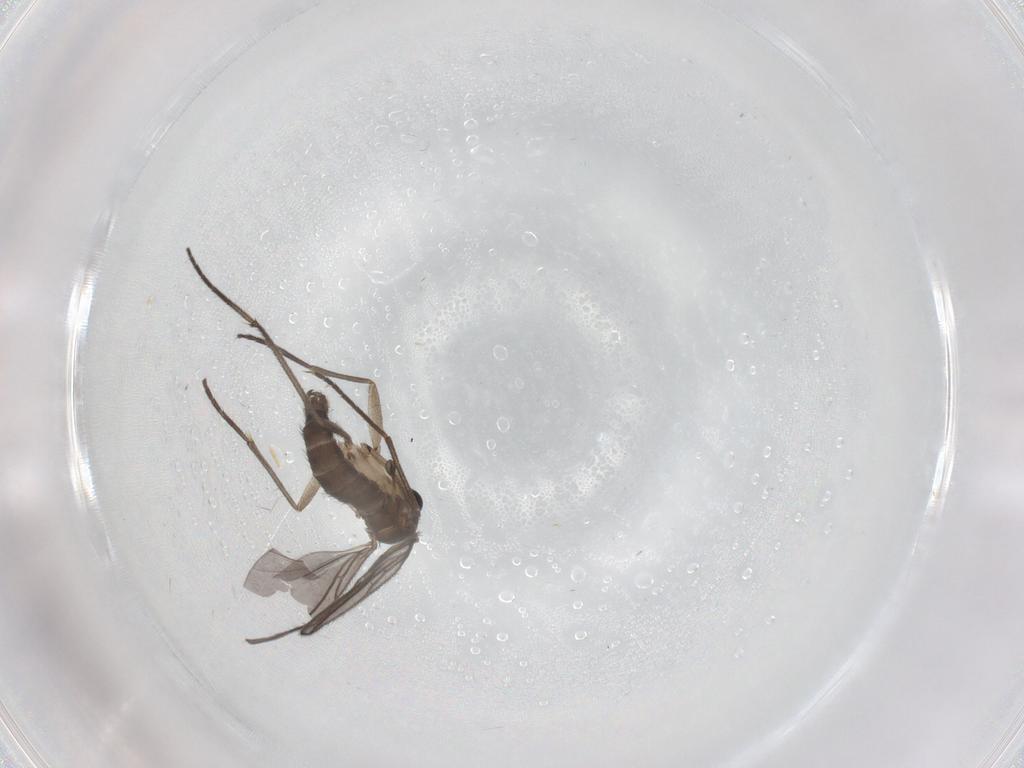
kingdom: Animalia
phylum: Arthropoda
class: Insecta
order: Diptera
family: Sciaridae
